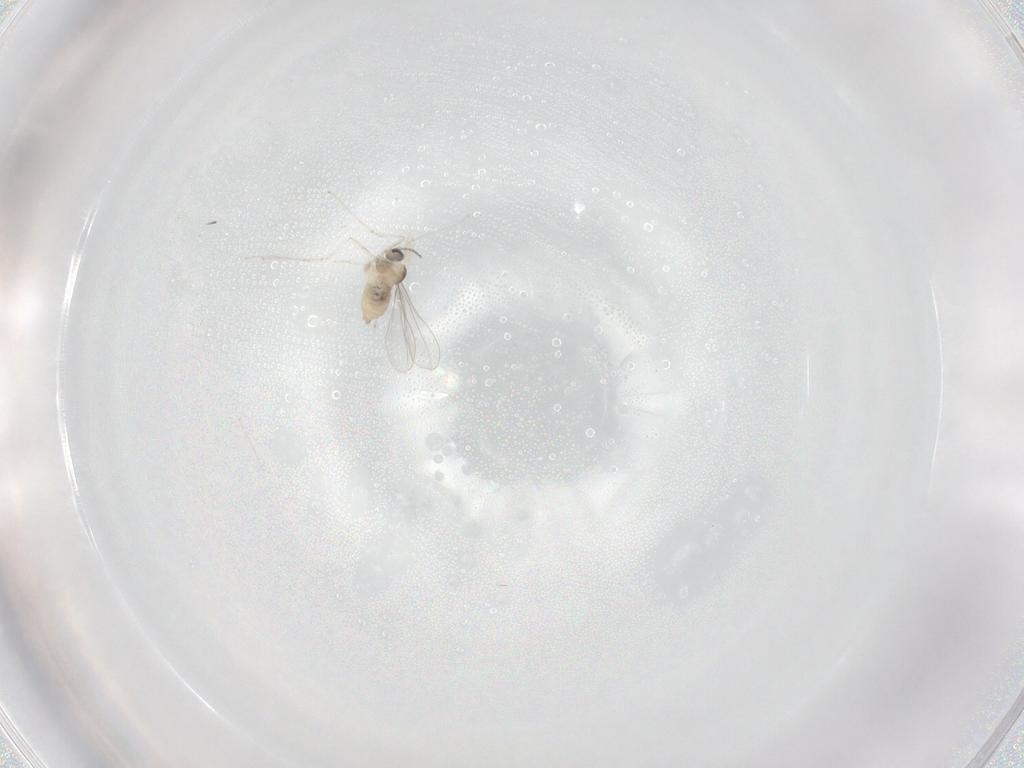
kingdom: Animalia
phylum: Arthropoda
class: Insecta
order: Diptera
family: Cecidomyiidae
